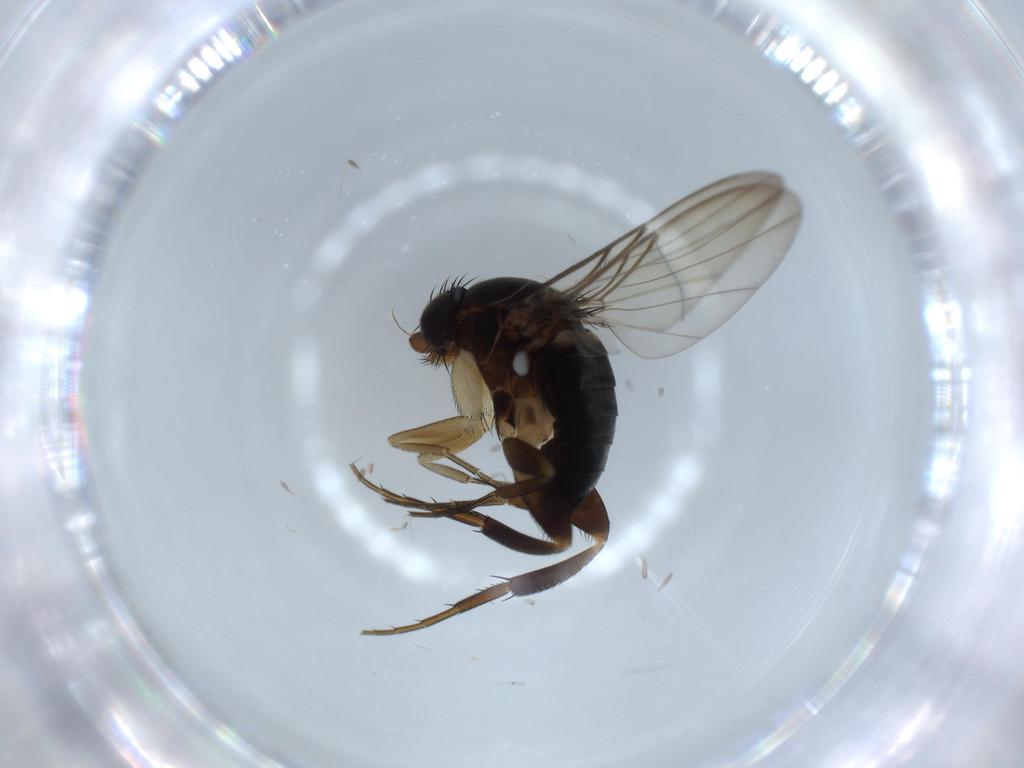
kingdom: Animalia
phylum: Arthropoda
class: Insecta
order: Diptera
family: Phoridae
